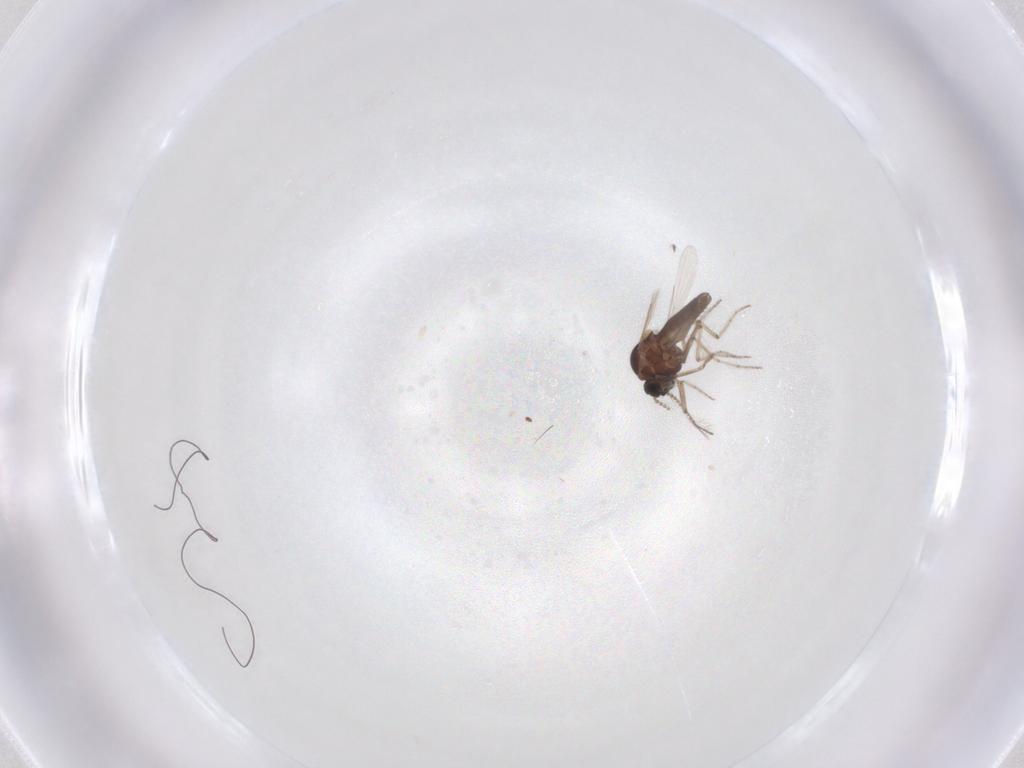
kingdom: Animalia
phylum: Arthropoda
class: Insecta
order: Diptera
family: Ceratopogonidae
